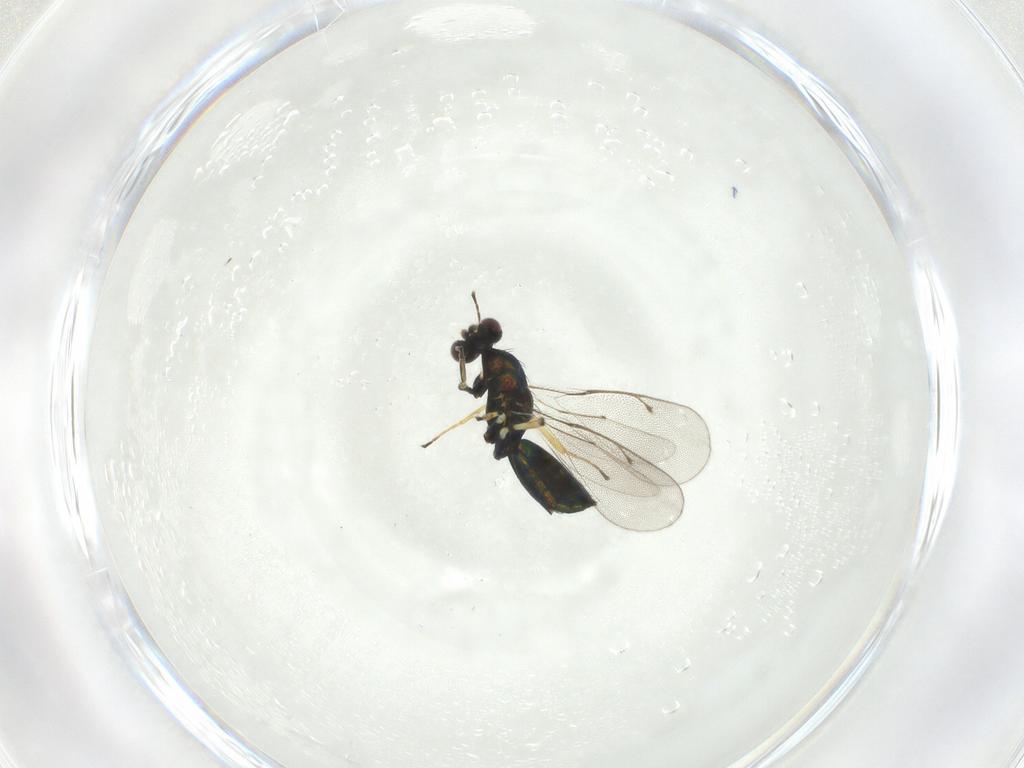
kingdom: Animalia
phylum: Arthropoda
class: Insecta
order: Hymenoptera
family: Eulophidae
